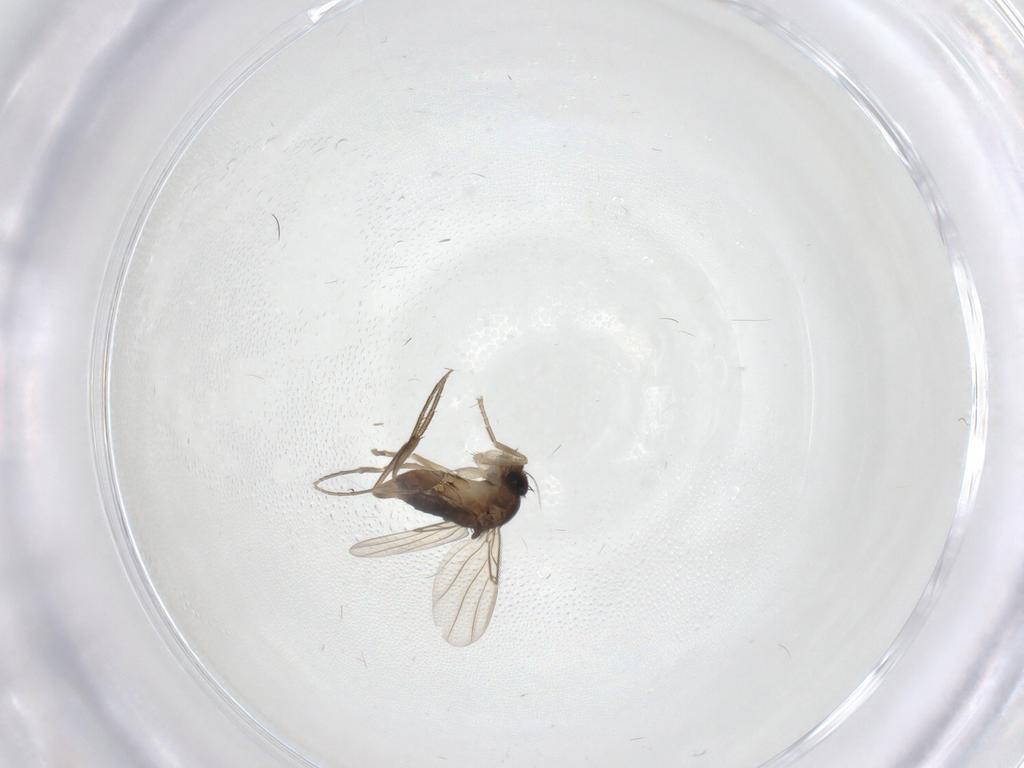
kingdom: Animalia
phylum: Arthropoda
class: Insecta
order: Diptera
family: Phoridae
